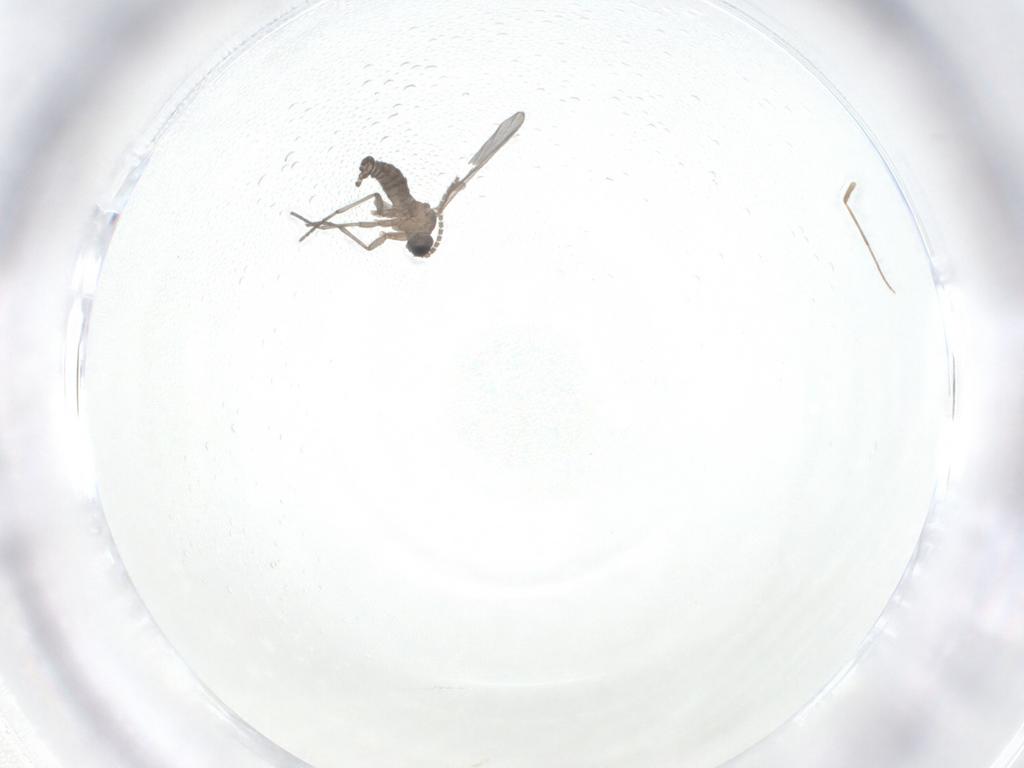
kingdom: Animalia
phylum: Arthropoda
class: Insecta
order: Diptera
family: Sciaridae
